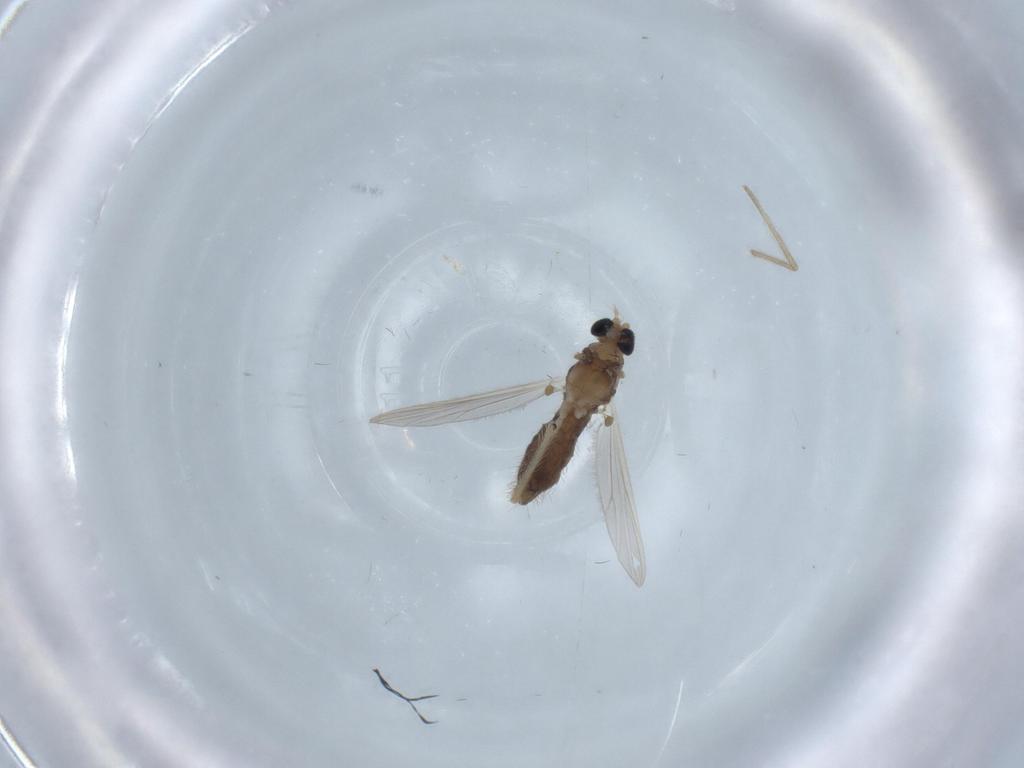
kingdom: Animalia
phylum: Arthropoda
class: Insecta
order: Diptera
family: Chironomidae
